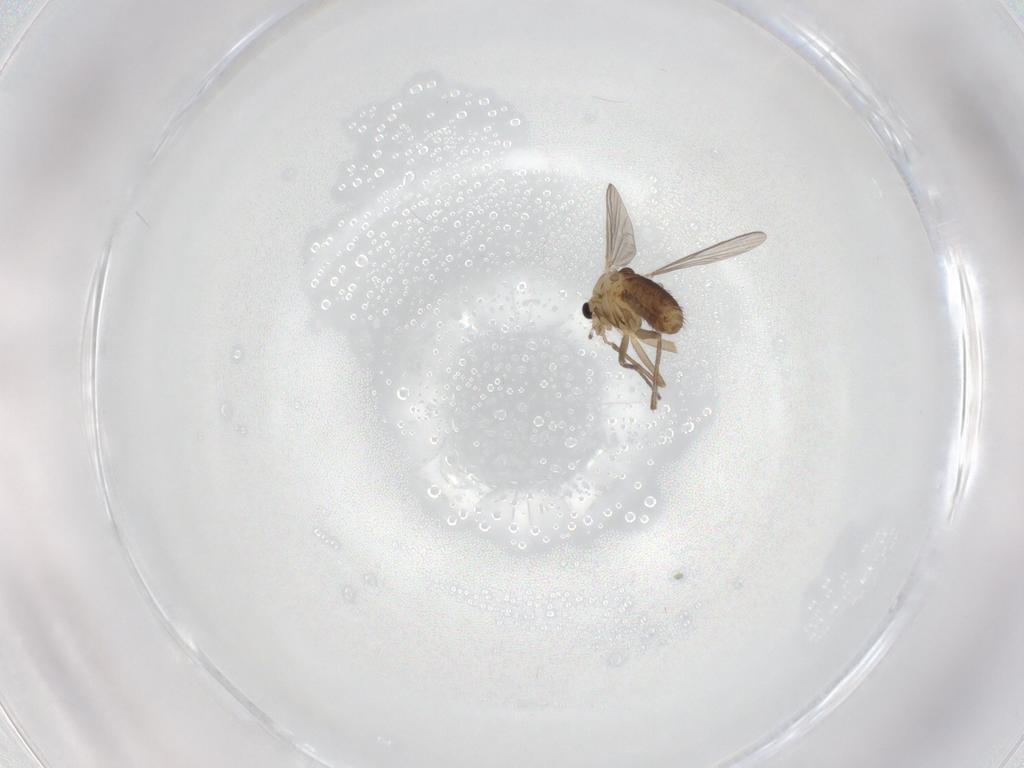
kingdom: Animalia
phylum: Arthropoda
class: Insecta
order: Diptera
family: Chironomidae
